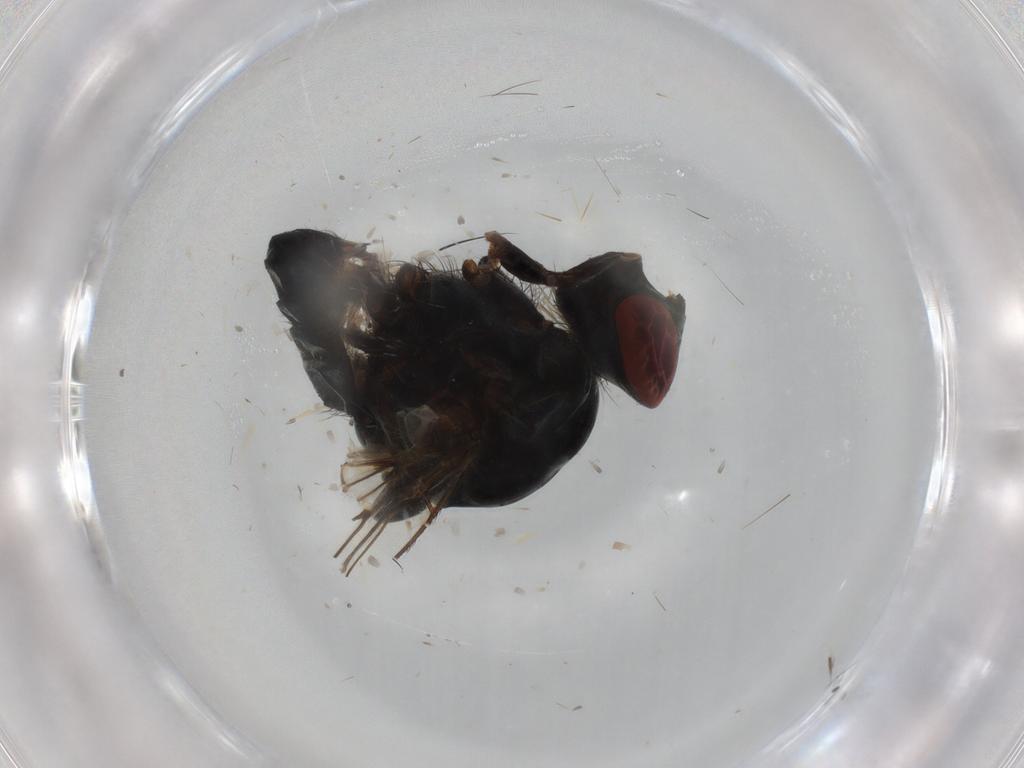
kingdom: Animalia
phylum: Arthropoda
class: Insecta
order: Diptera
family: Anthomyiidae
